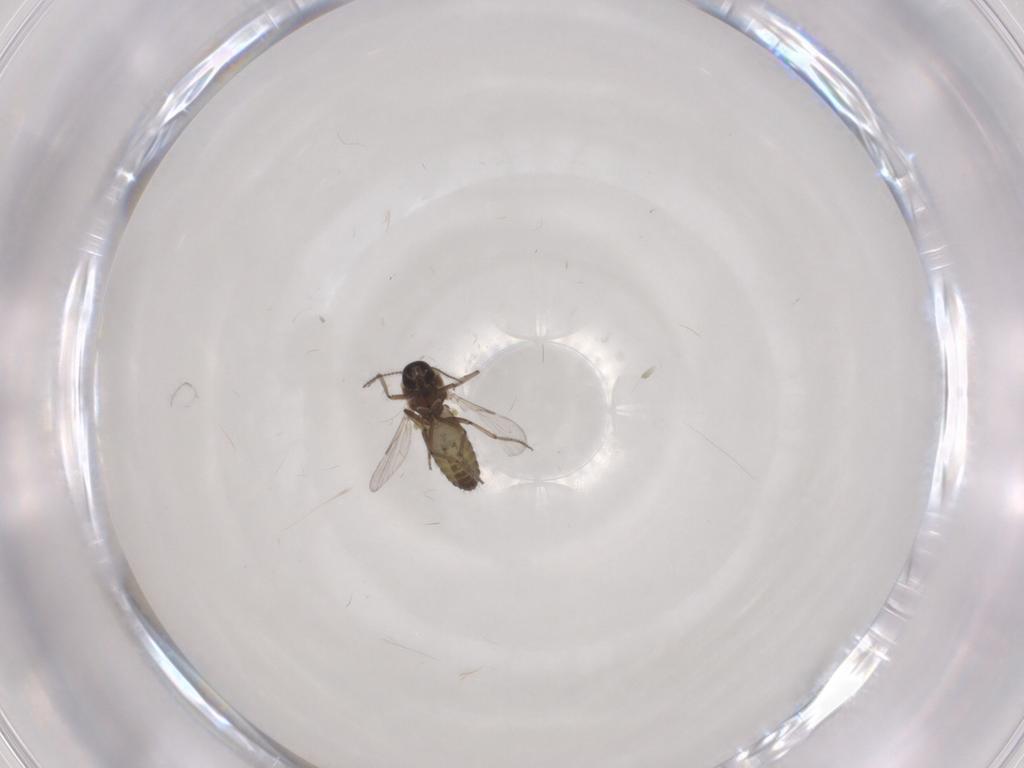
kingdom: Animalia
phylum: Arthropoda
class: Insecta
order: Diptera
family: Ceratopogonidae
